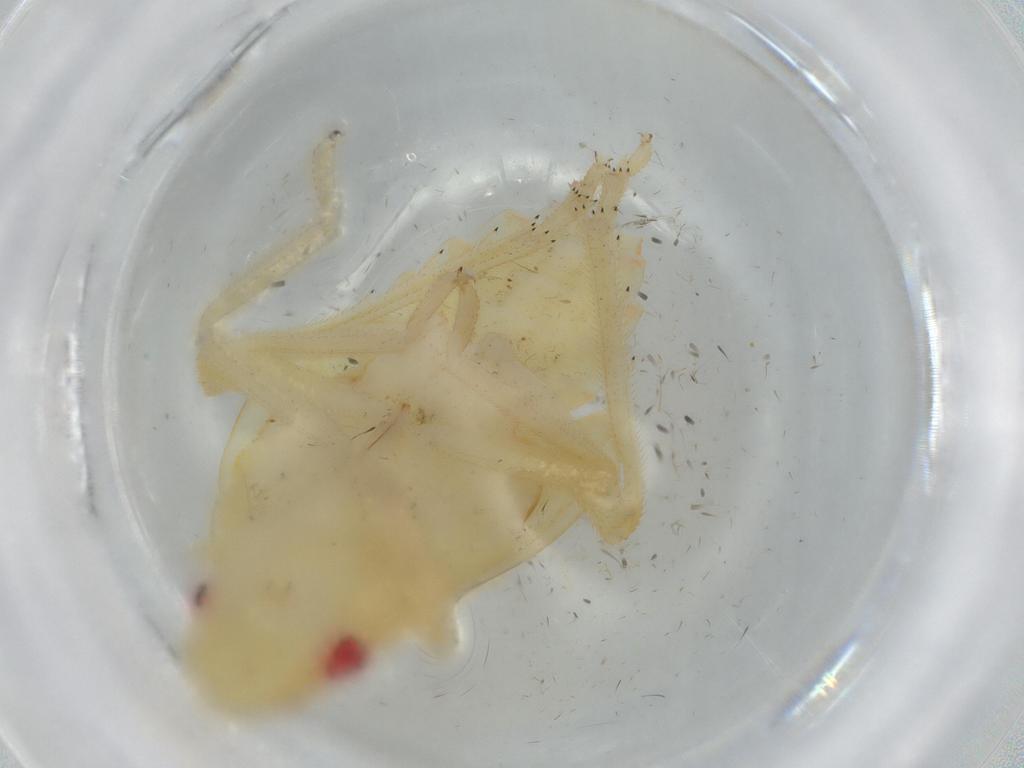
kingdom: Animalia
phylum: Arthropoda
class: Insecta
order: Hemiptera
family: Tropiduchidae
